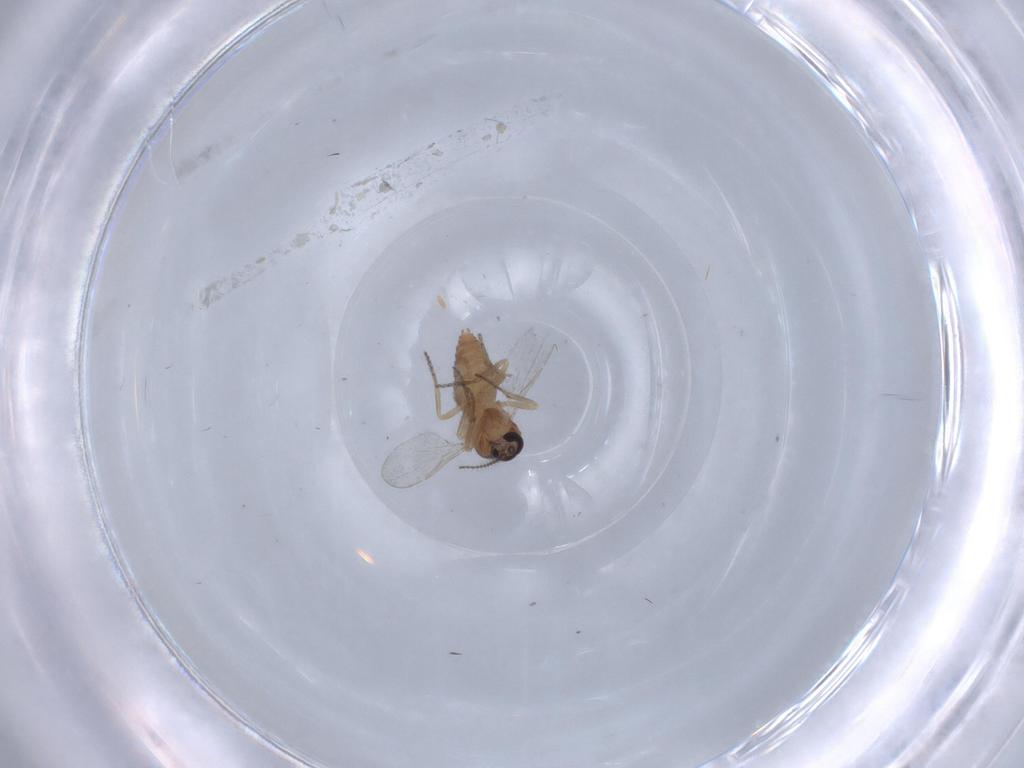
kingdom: Animalia
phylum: Arthropoda
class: Insecta
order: Diptera
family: Ceratopogonidae
